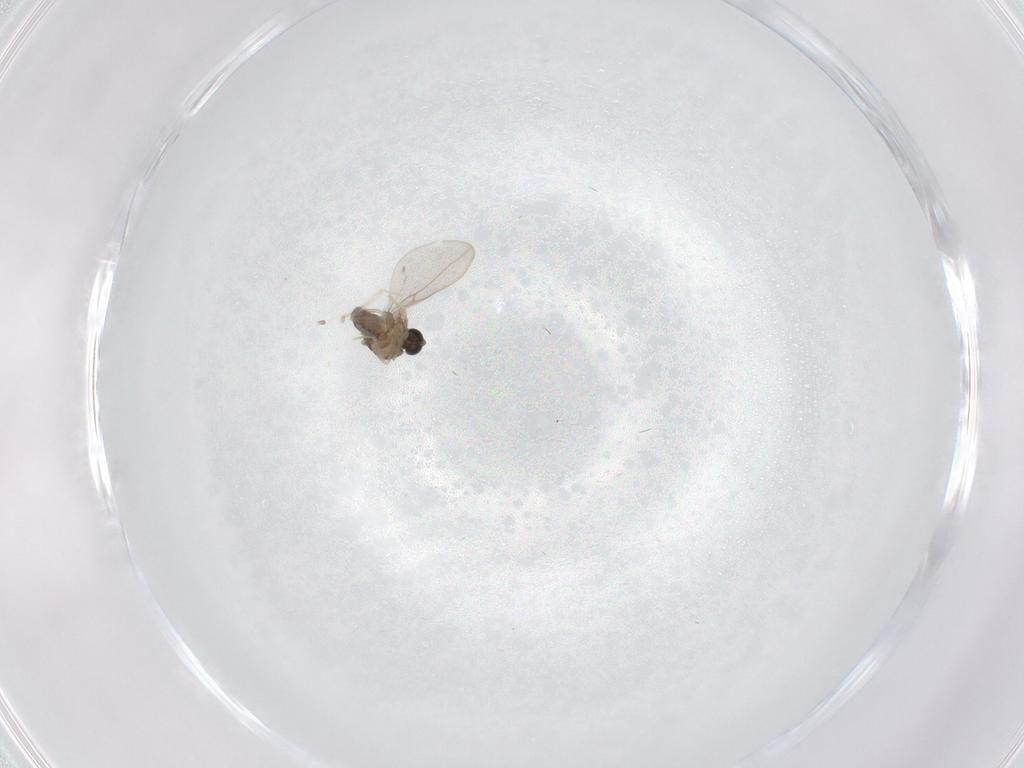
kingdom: Animalia
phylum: Arthropoda
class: Insecta
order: Diptera
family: Cecidomyiidae
